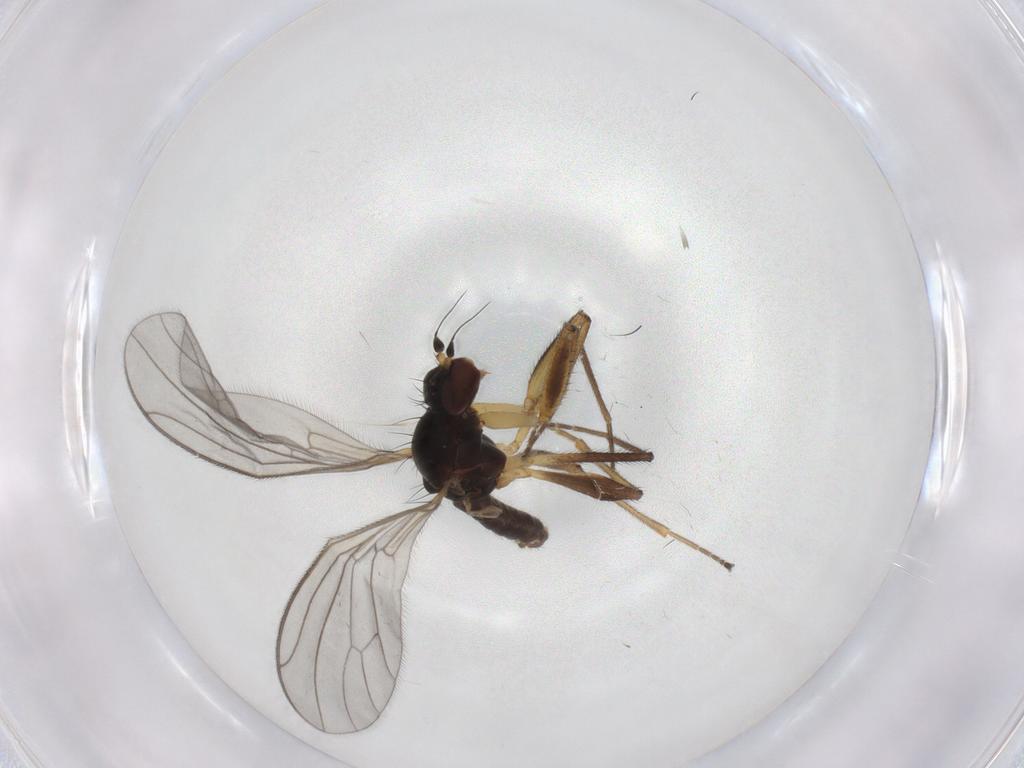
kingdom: Animalia
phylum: Arthropoda
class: Insecta
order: Diptera
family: Empididae
